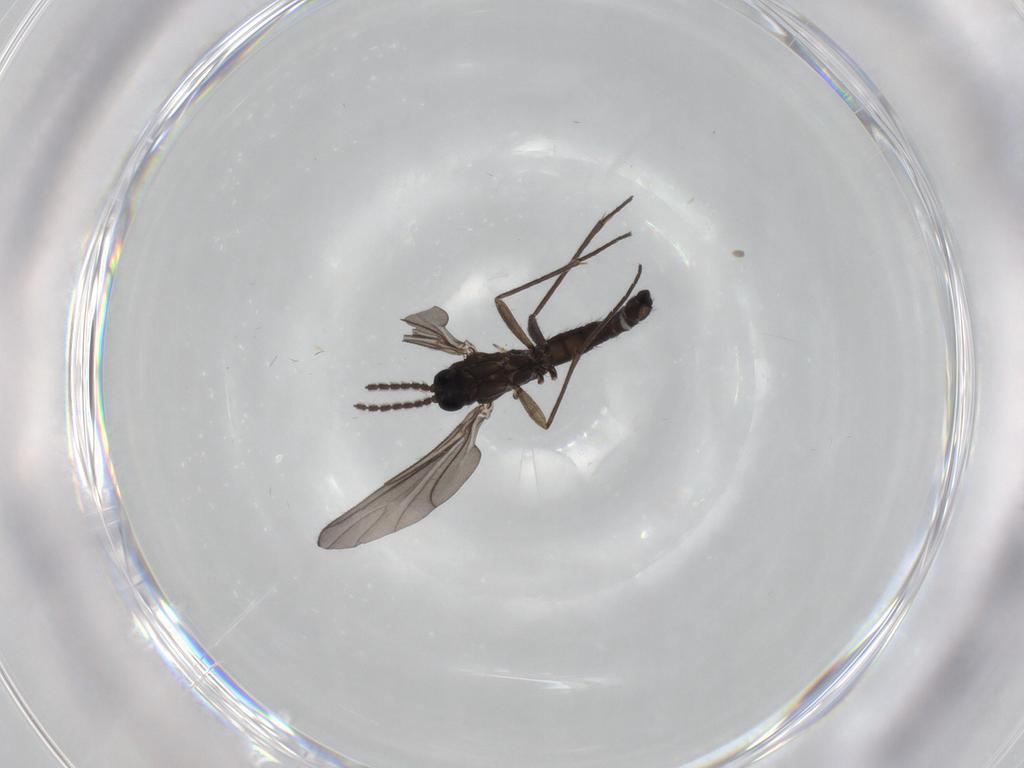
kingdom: Animalia
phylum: Arthropoda
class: Insecta
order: Diptera
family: Sciaridae
